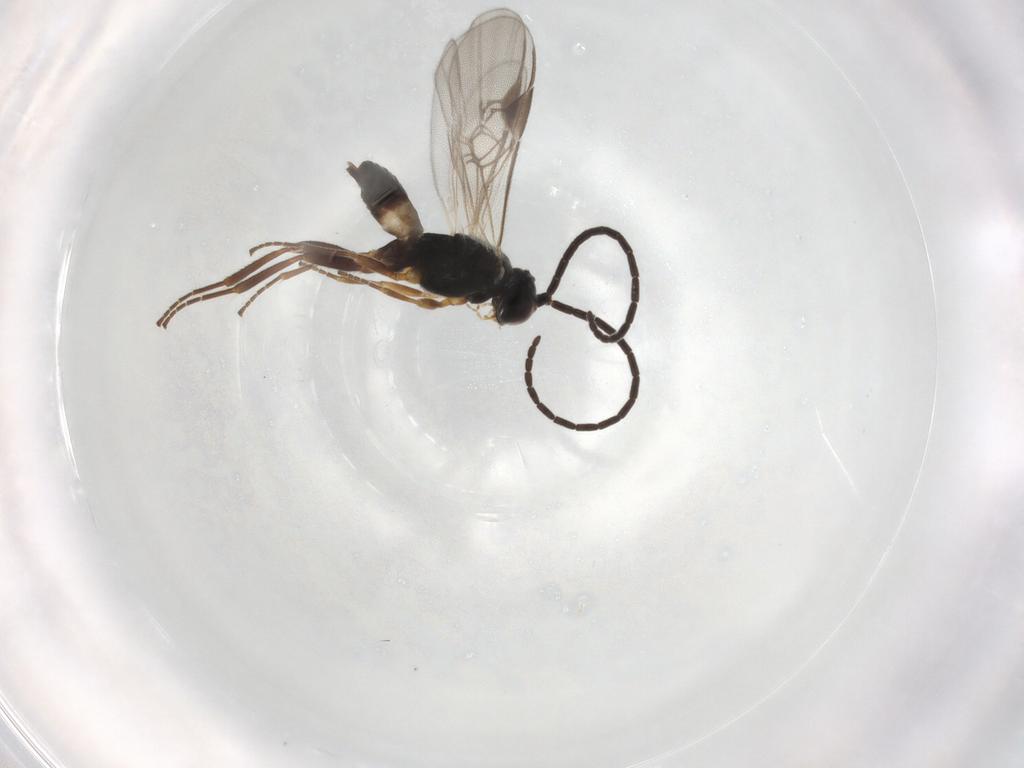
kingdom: Animalia
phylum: Arthropoda
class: Insecta
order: Hymenoptera
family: Braconidae
